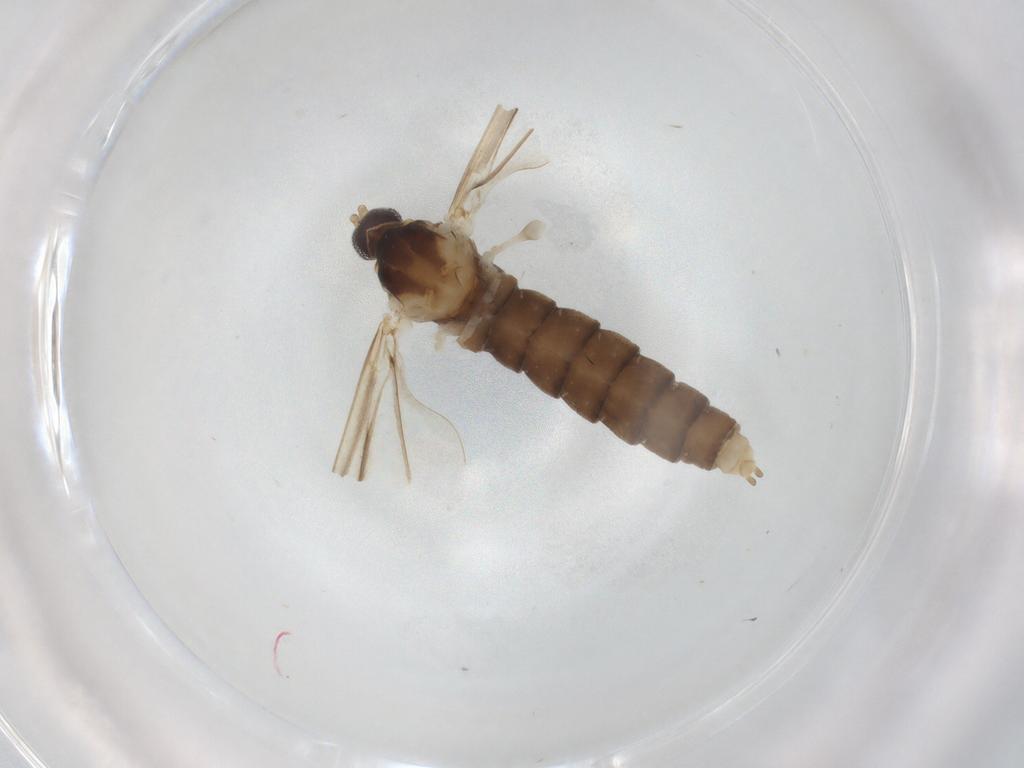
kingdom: Animalia
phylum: Arthropoda
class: Insecta
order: Diptera
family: Cecidomyiidae
